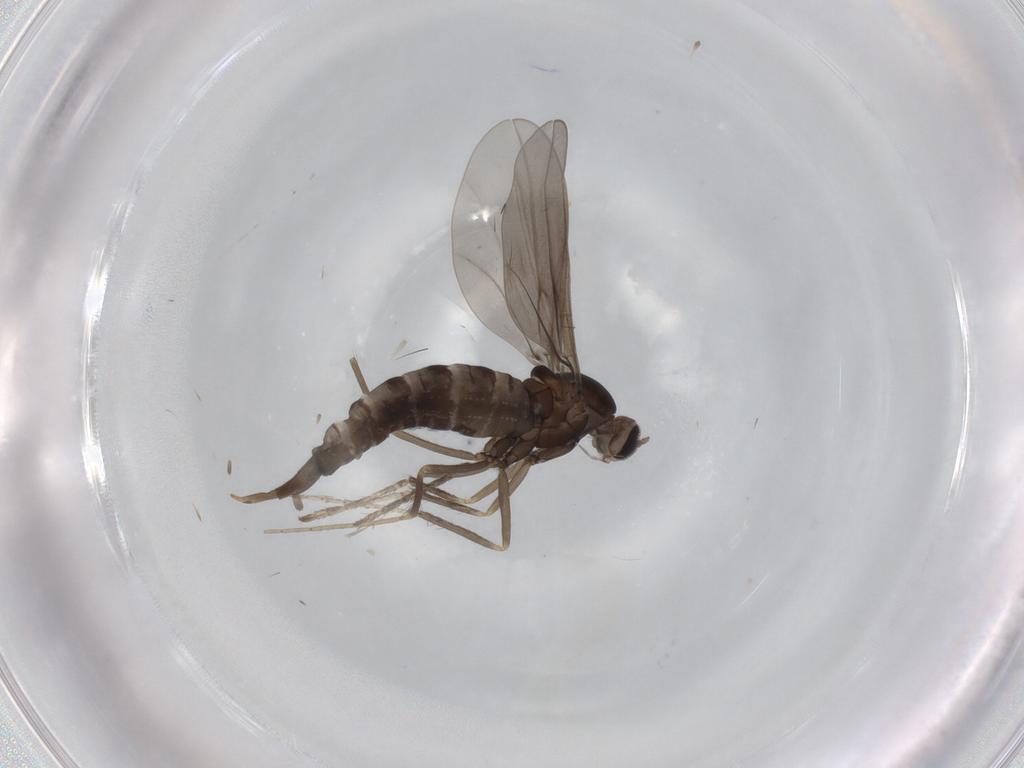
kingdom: Animalia
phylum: Arthropoda
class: Insecta
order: Diptera
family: Cecidomyiidae
